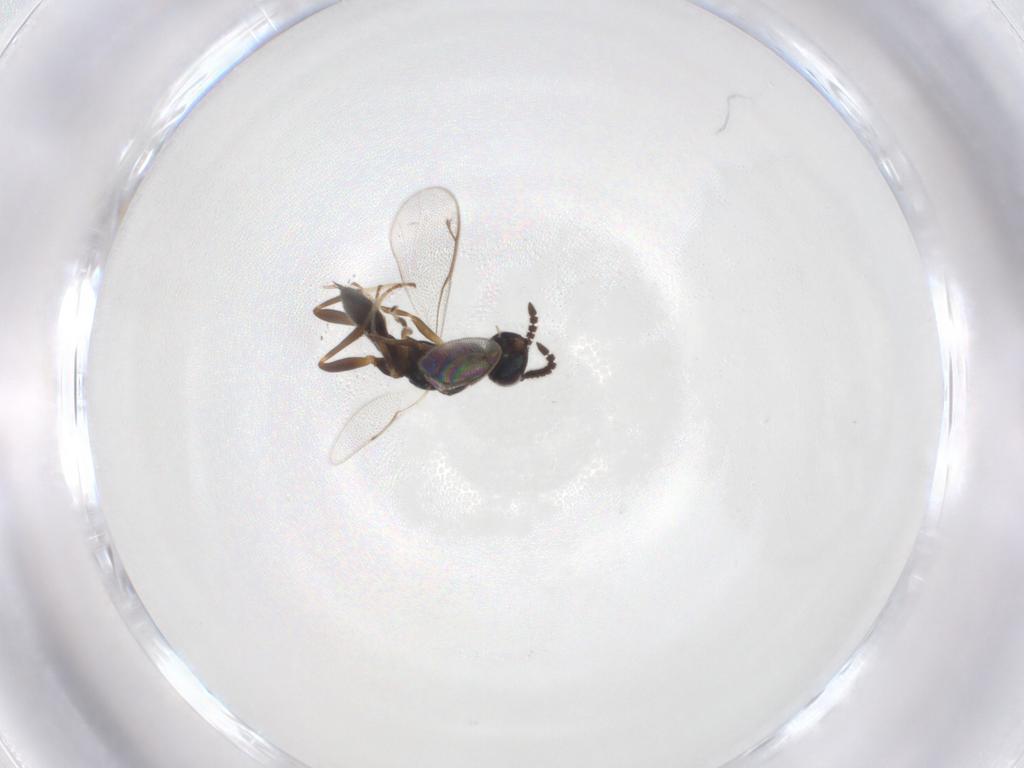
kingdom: Animalia
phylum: Arthropoda
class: Insecta
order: Hymenoptera
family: Cleonyminae
